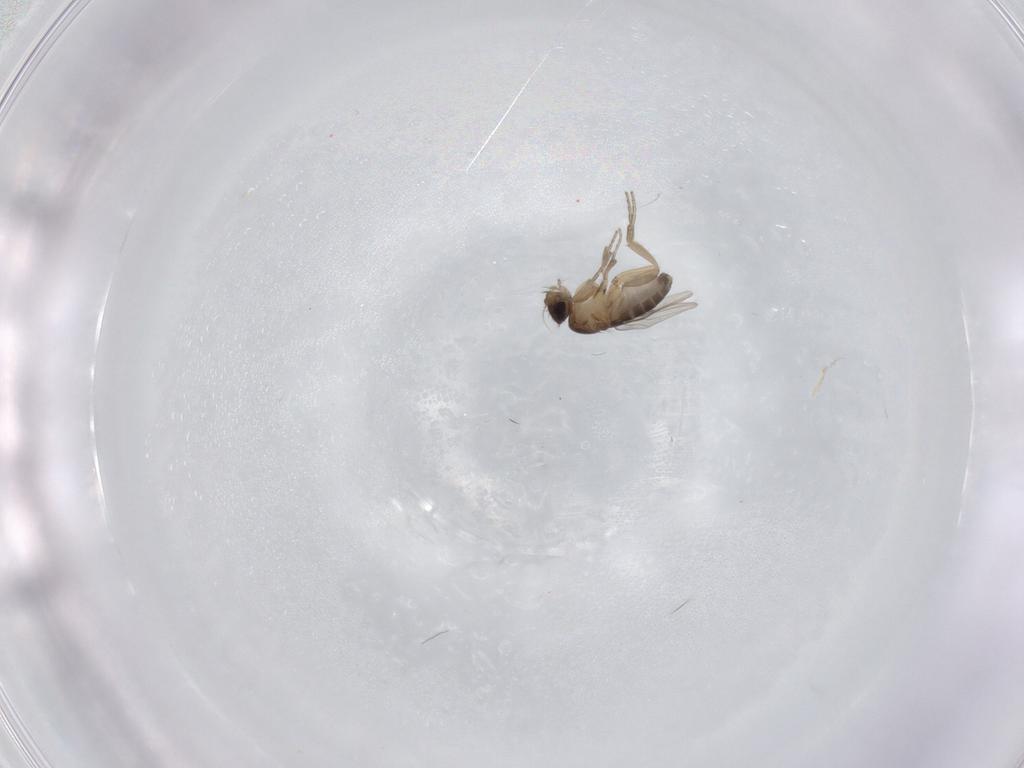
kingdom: Animalia
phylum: Arthropoda
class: Insecta
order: Diptera
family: Phoridae
